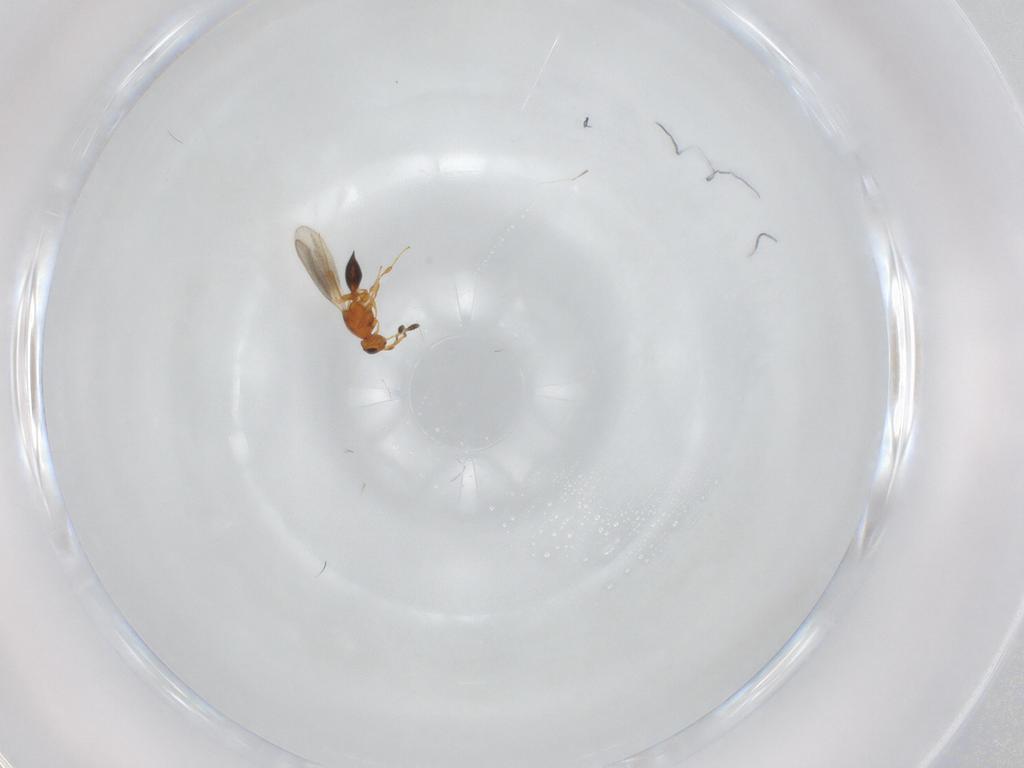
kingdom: Animalia
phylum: Arthropoda
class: Insecta
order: Hymenoptera
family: Platygastridae
